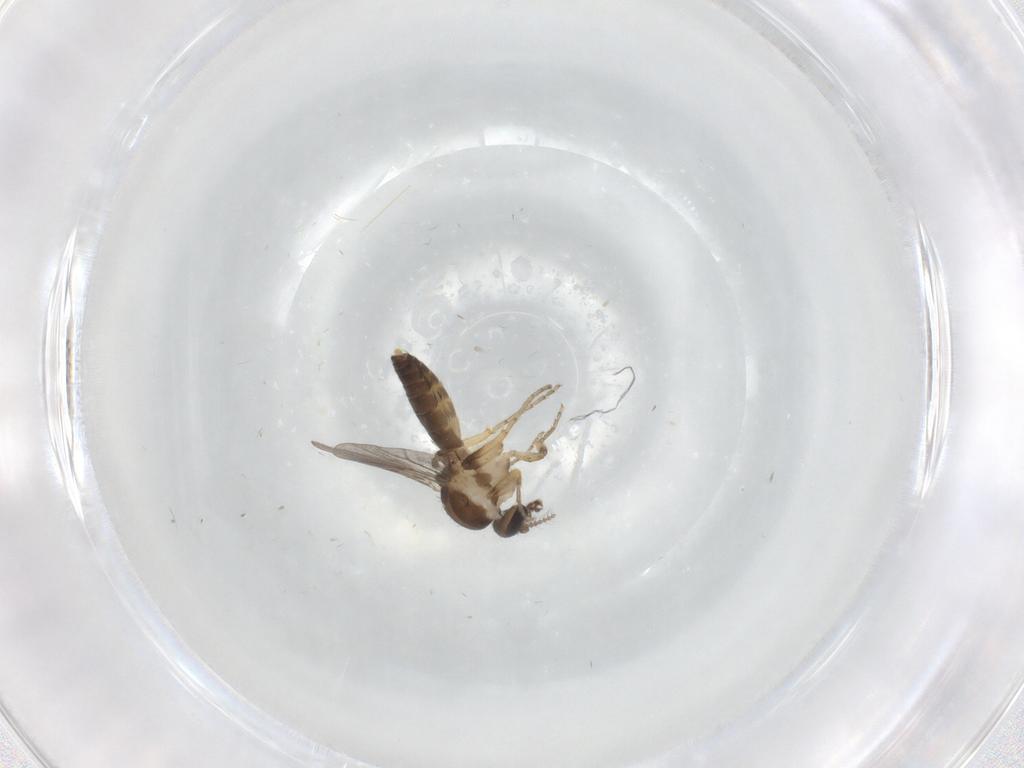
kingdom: Animalia
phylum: Arthropoda
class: Insecta
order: Diptera
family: Ceratopogonidae
